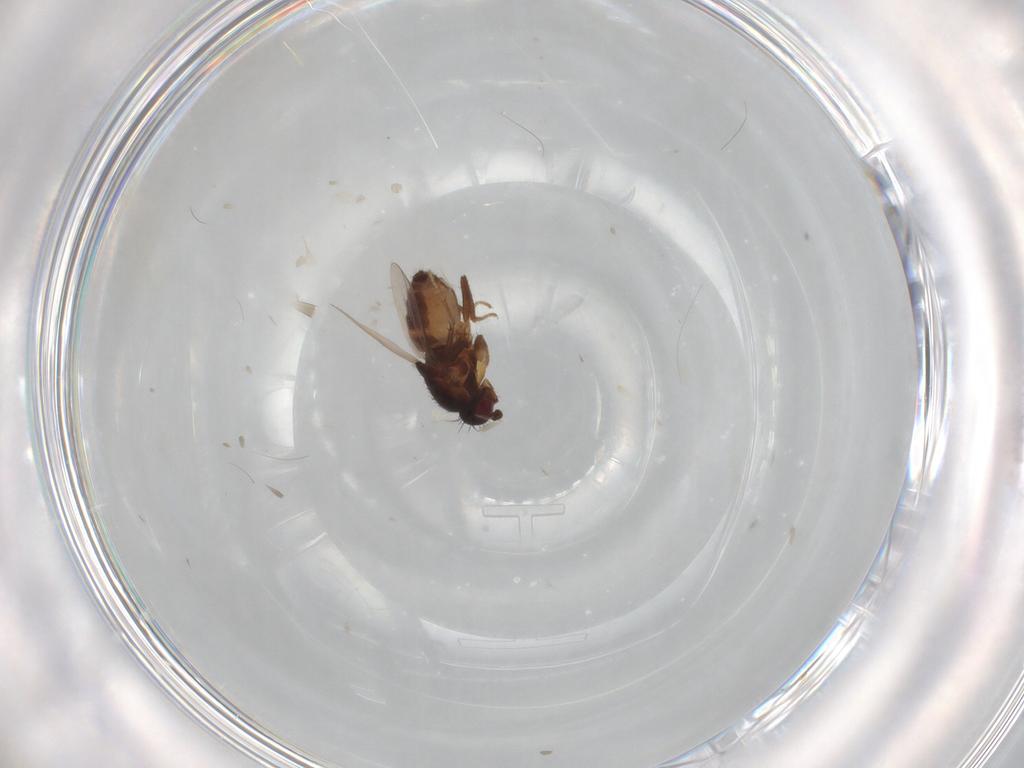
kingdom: Animalia
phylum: Arthropoda
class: Insecta
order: Diptera
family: Chironomidae
